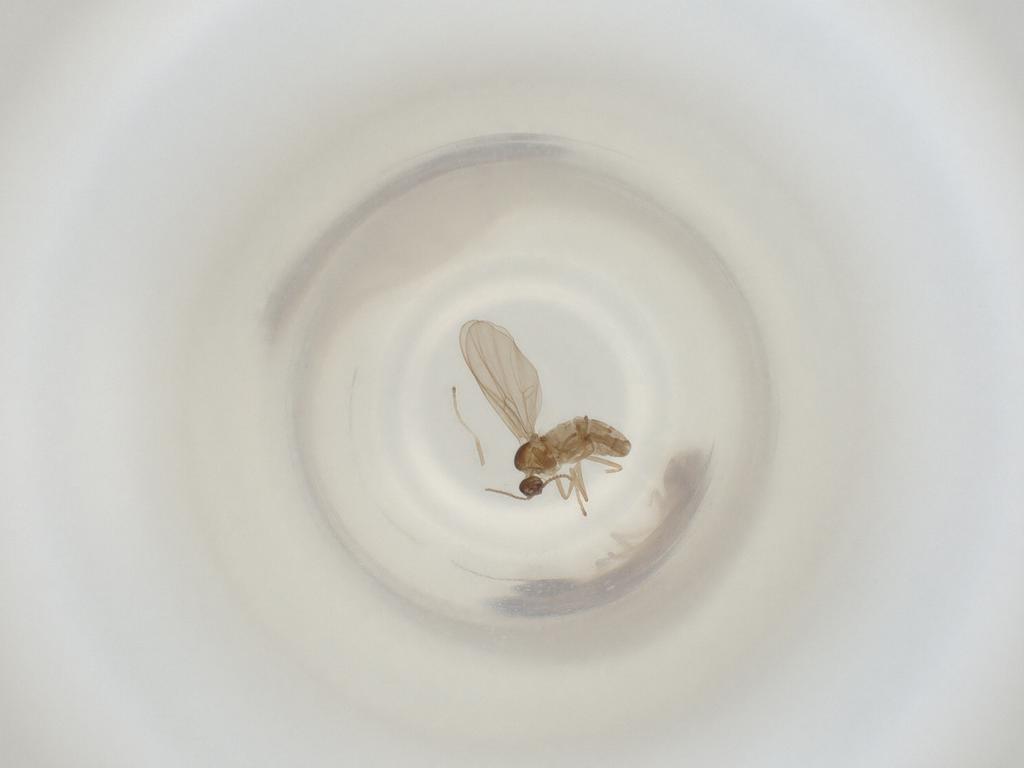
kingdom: Animalia
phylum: Arthropoda
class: Insecta
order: Diptera
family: Cecidomyiidae
